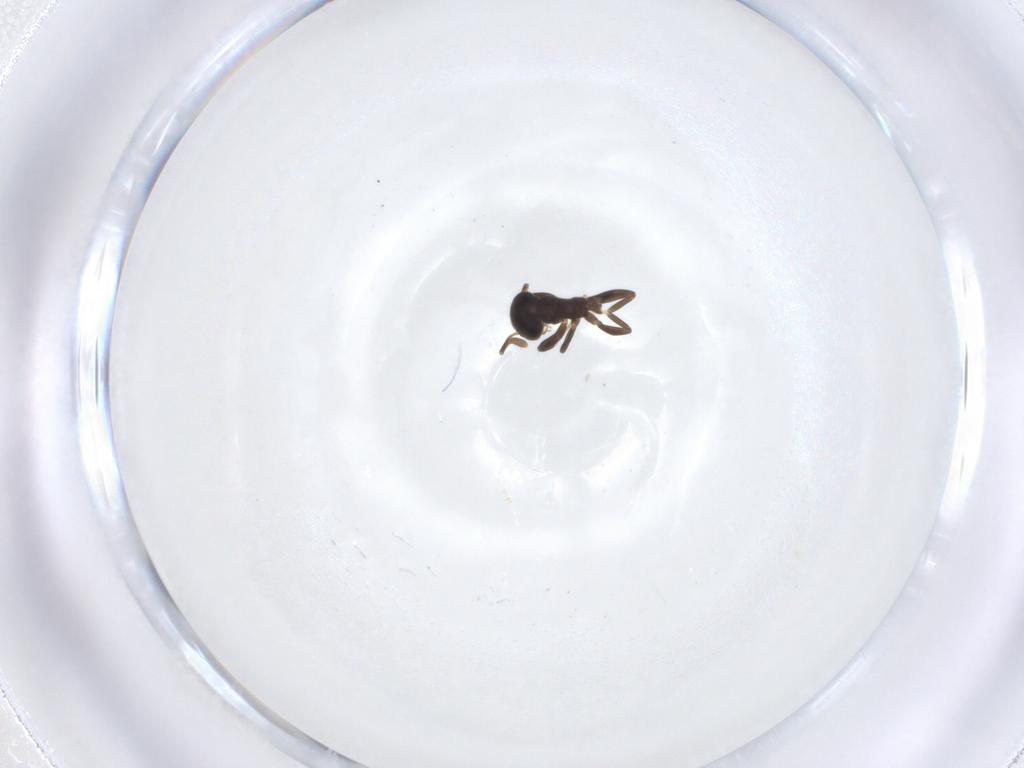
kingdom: Animalia
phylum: Arthropoda
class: Insecta
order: Hymenoptera
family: Formicidae
